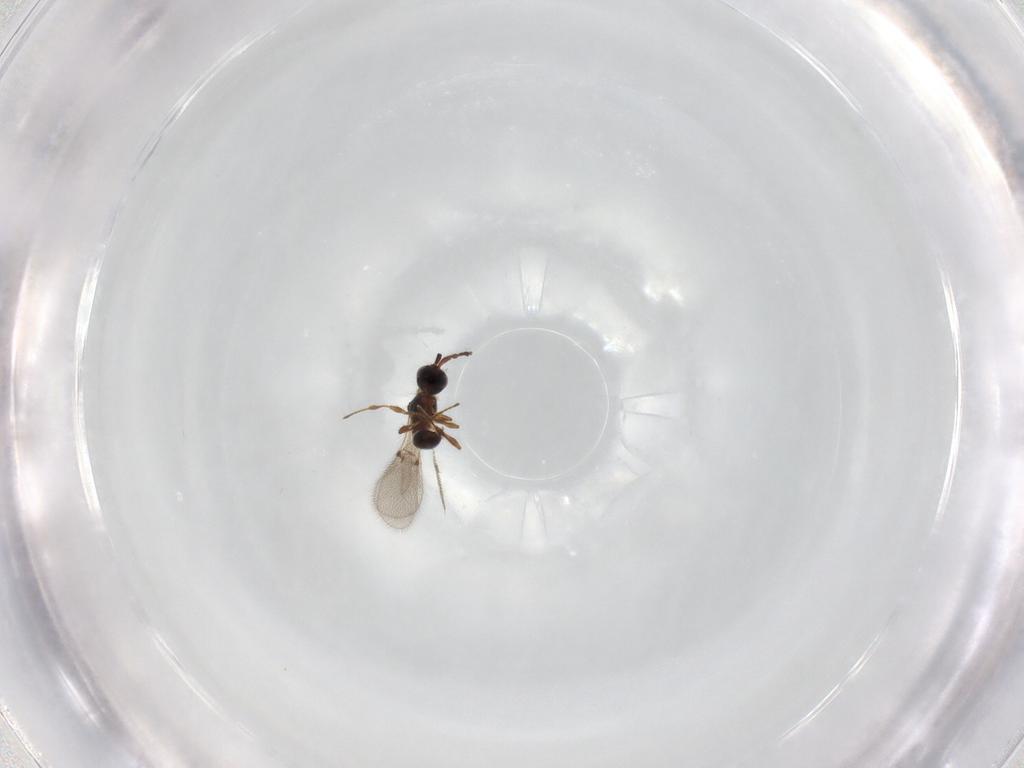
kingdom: Animalia
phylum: Arthropoda
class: Insecta
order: Hymenoptera
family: Diapriidae
